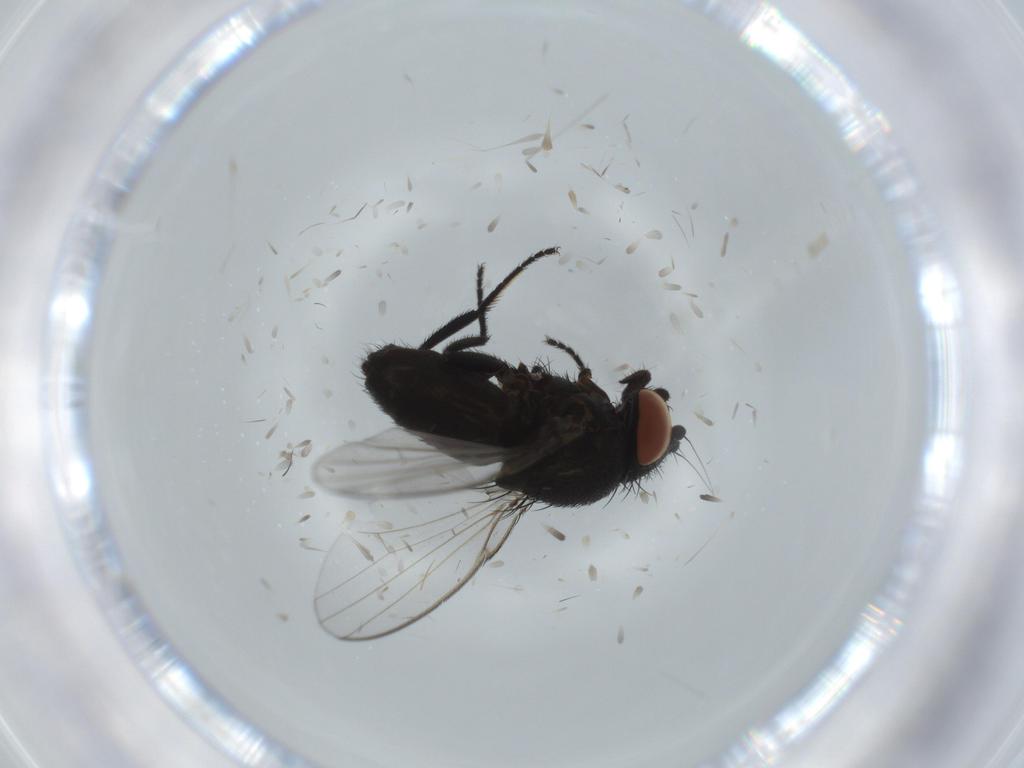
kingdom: Animalia
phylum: Arthropoda
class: Insecta
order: Diptera
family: Milichiidae
